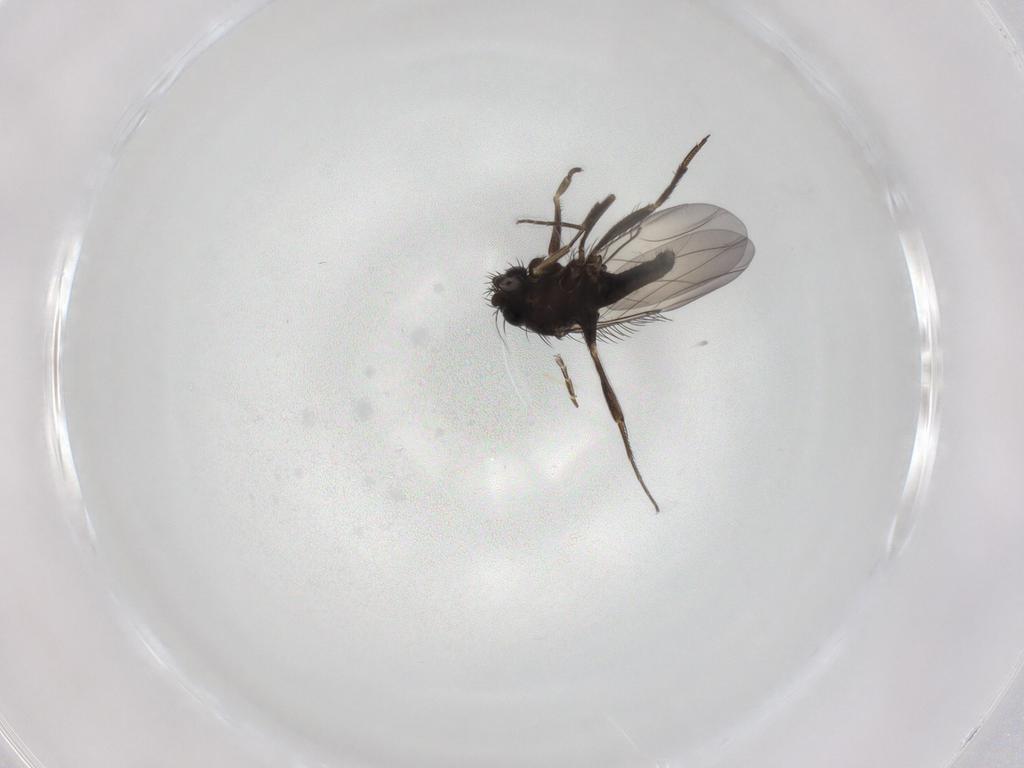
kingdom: Animalia
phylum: Arthropoda
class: Insecta
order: Diptera
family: Phoridae
